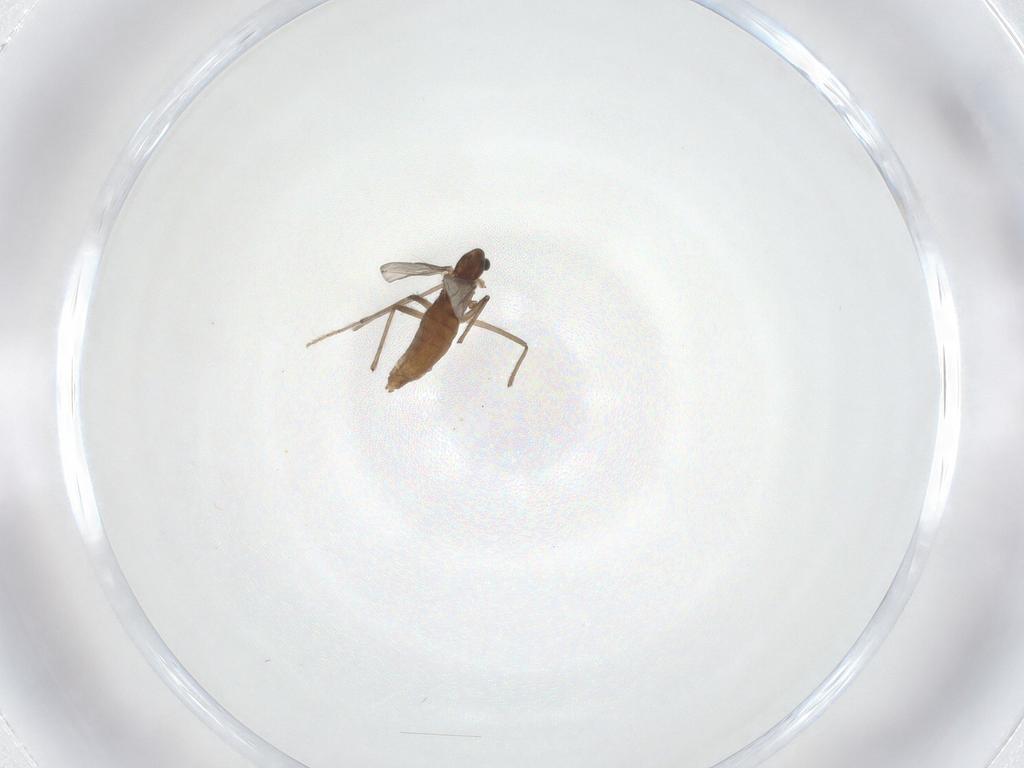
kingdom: Animalia
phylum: Arthropoda
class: Insecta
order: Diptera
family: Chironomidae
